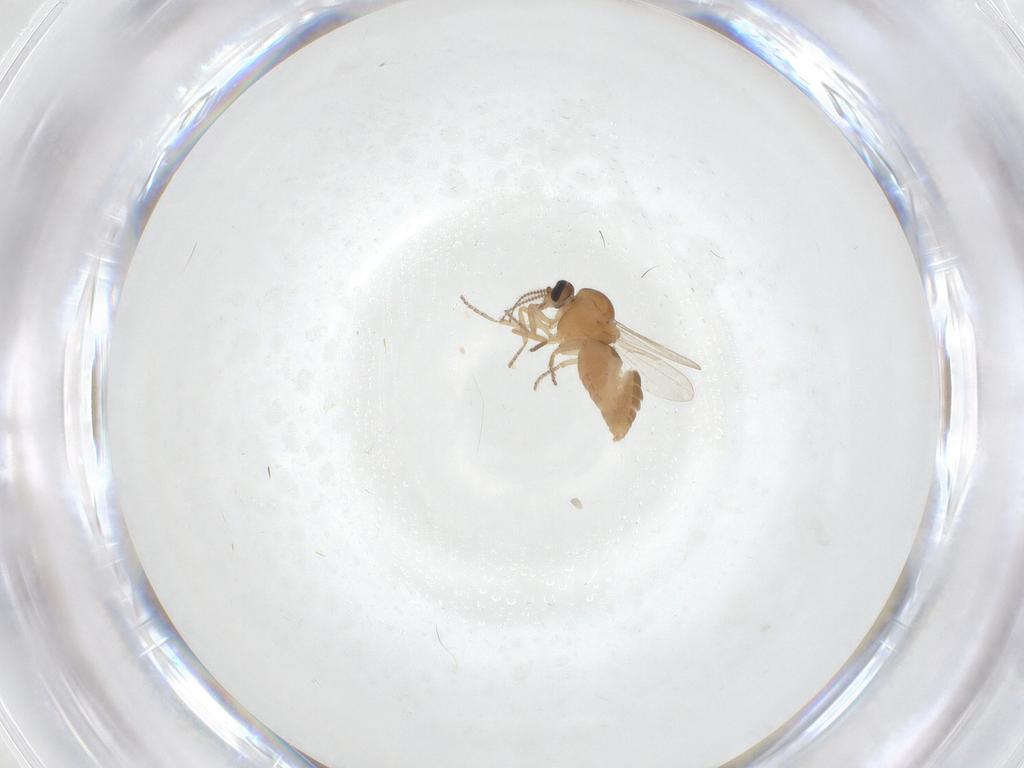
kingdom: Animalia
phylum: Arthropoda
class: Insecta
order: Diptera
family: Ceratopogonidae
